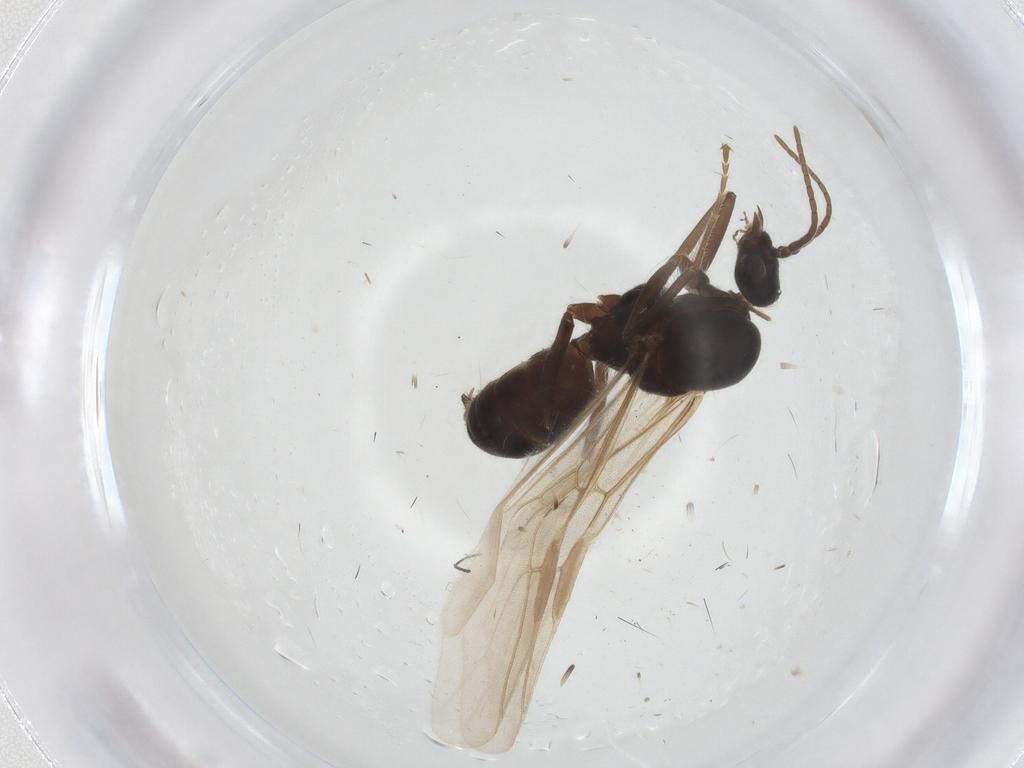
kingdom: Animalia
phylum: Arthropoda
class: Insecta
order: Hymenoptera
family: Formicidae
